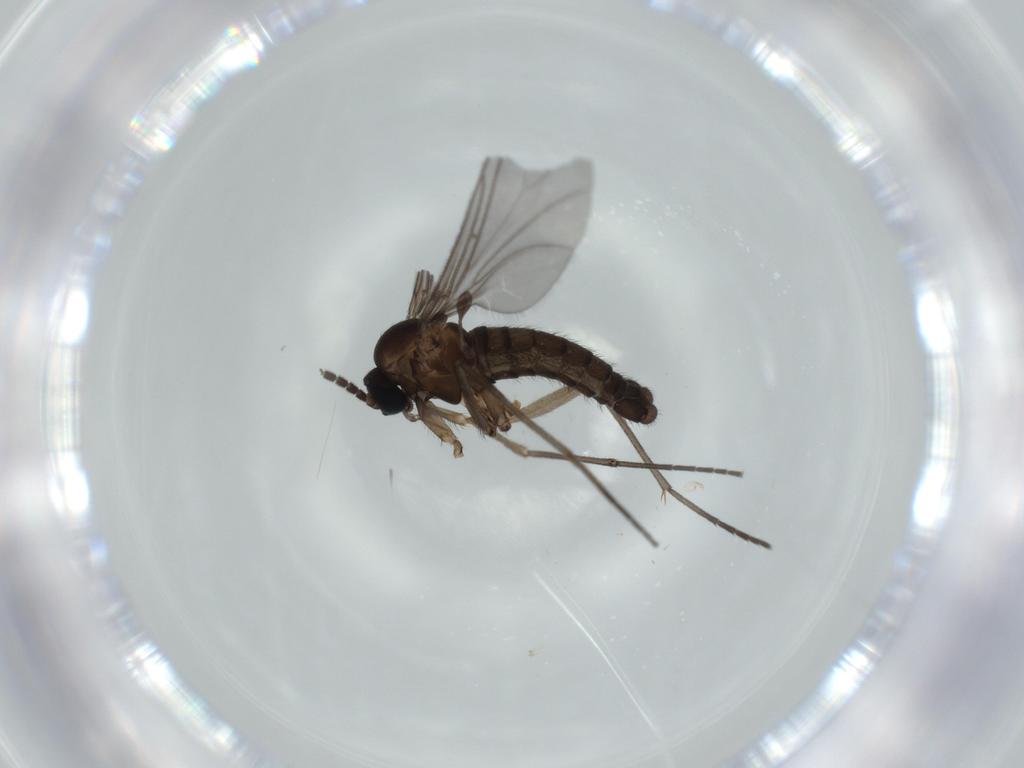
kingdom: Animalia
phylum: Arthropoda
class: Insecta
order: Diptera
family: Sciaridae
